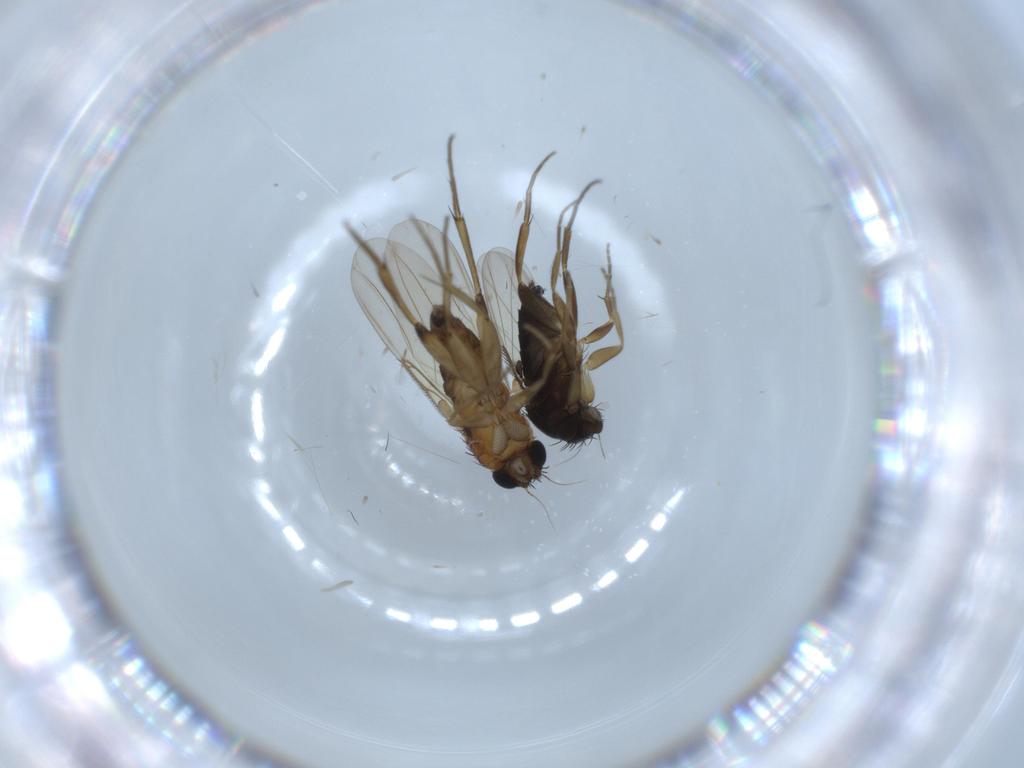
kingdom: Animalia
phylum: Arthropoda
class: Insecta
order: Diptera
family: Phoridae
